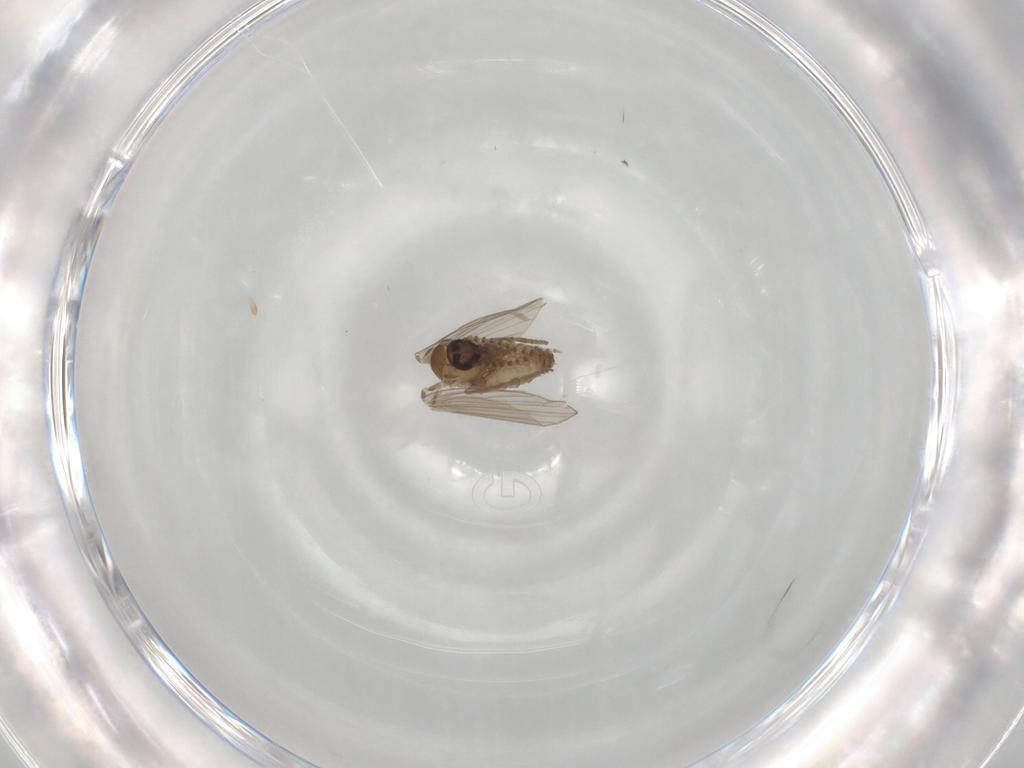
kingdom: Animalia
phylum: Arthropoda
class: Insecta
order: Diptera
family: Psychodidae
